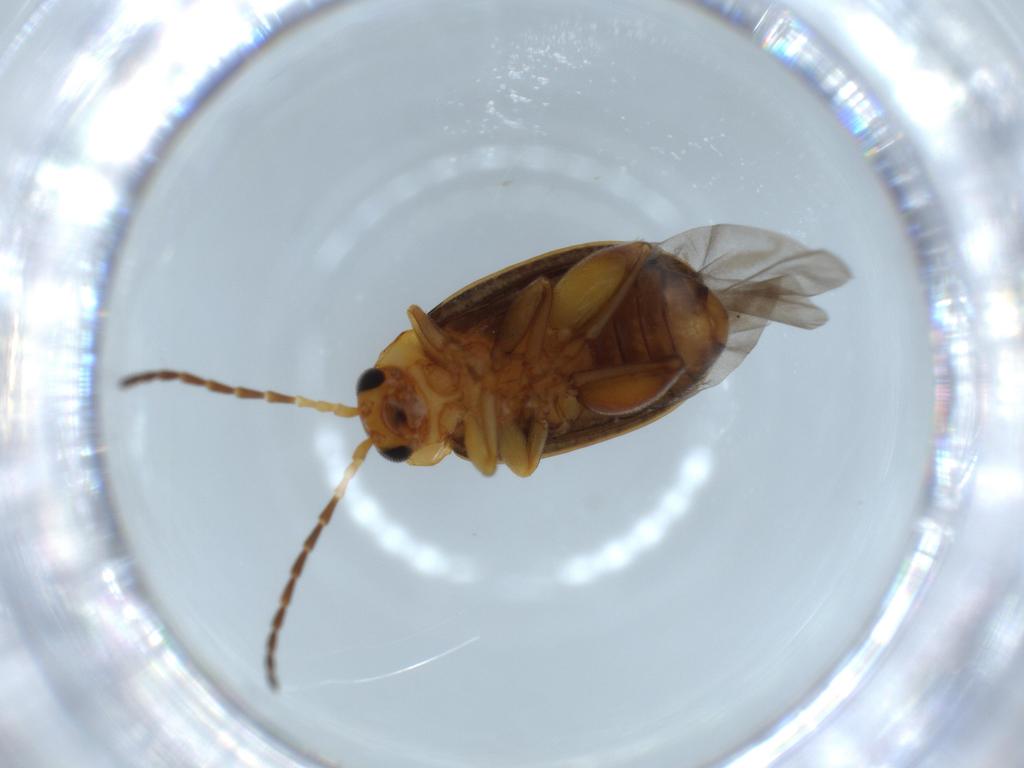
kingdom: Animalia
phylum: Arthropoda
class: Insecta
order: Coleoptera
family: Chrysomelidae
